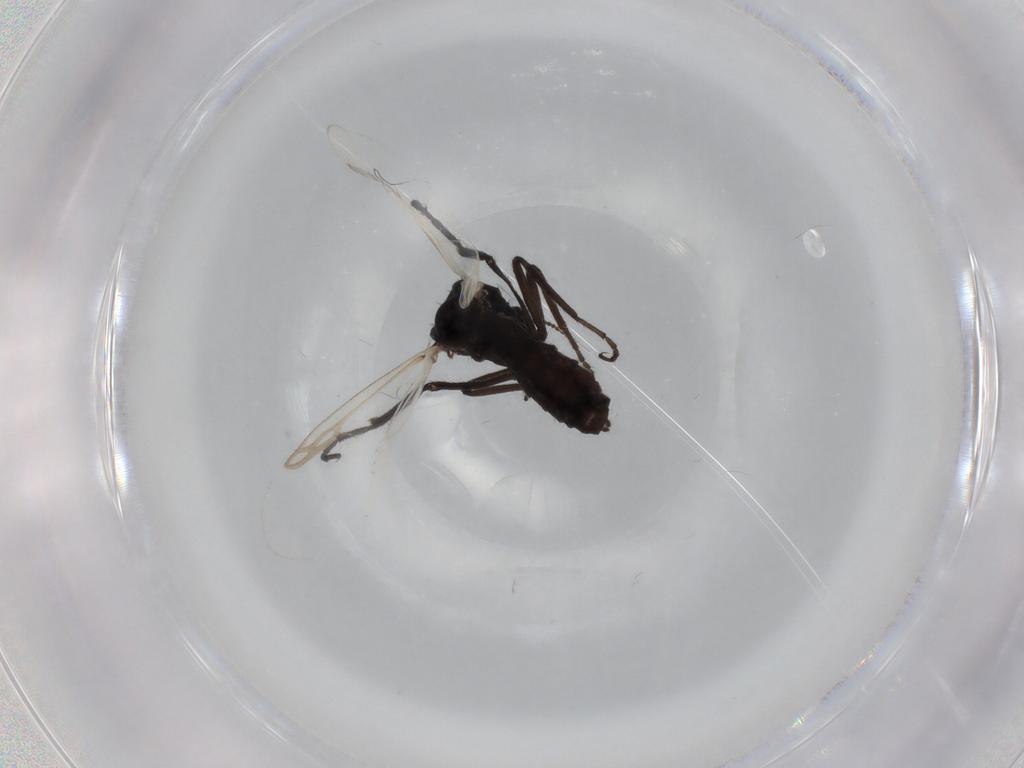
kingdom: Animalia
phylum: Arthropoda
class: Insecta
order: Diptera
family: Ceratopogonidae
